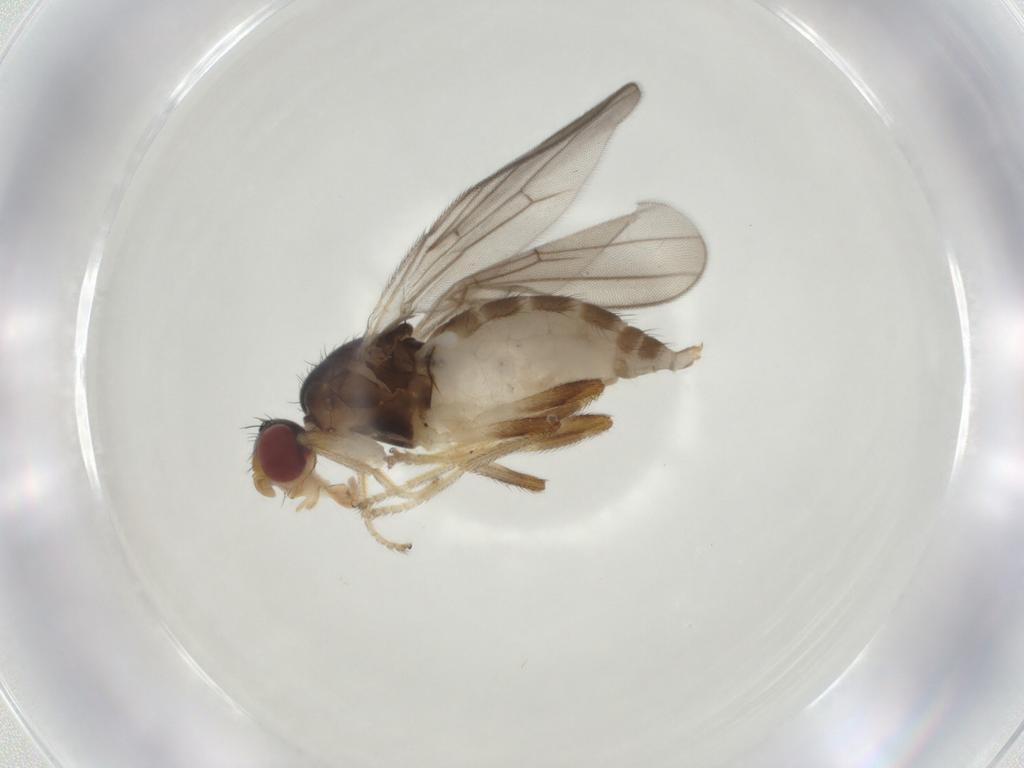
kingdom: Animalia
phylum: Arthropoda
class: Insecta
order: Diptera
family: Chloropidae
